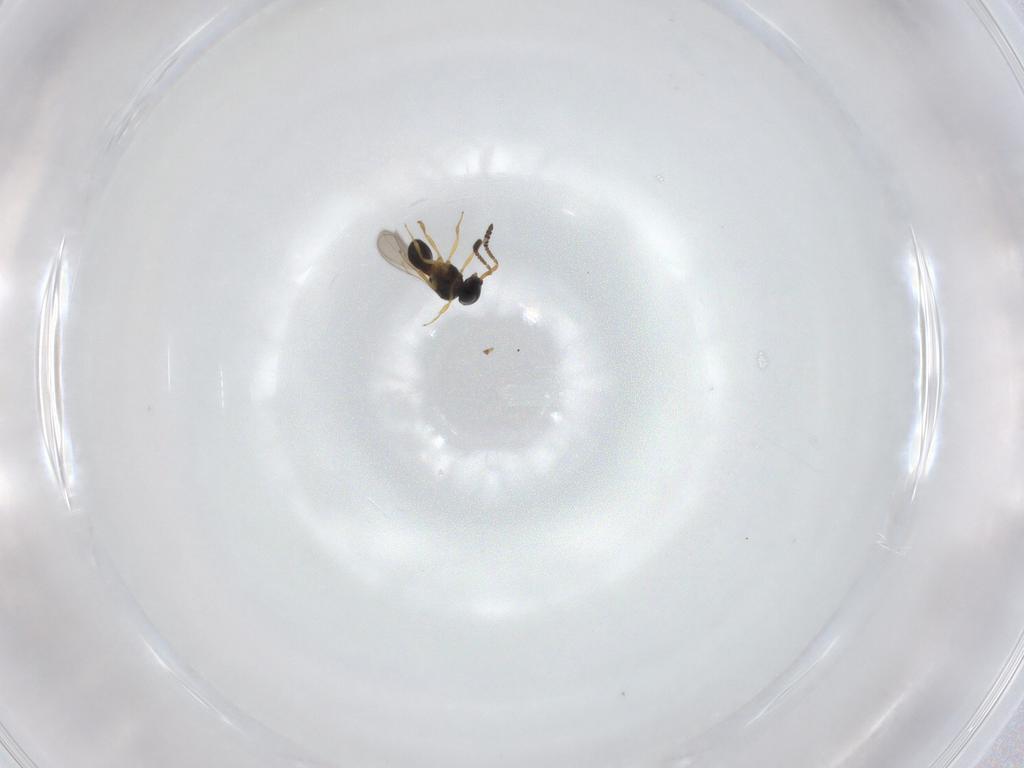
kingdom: Animalia
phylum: Arthropoda
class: Insecta
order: Hymenoptera
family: Scelionidae
